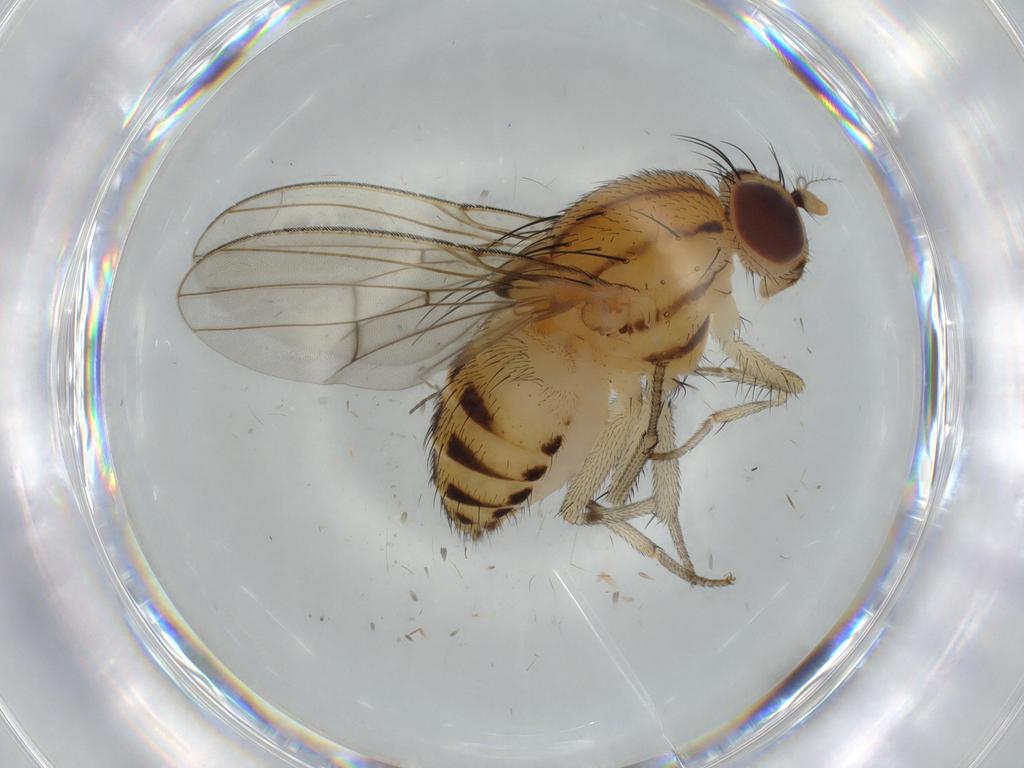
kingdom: Animalia
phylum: Arthropoda
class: Insecta
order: Diptera
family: Lauxaniidae
